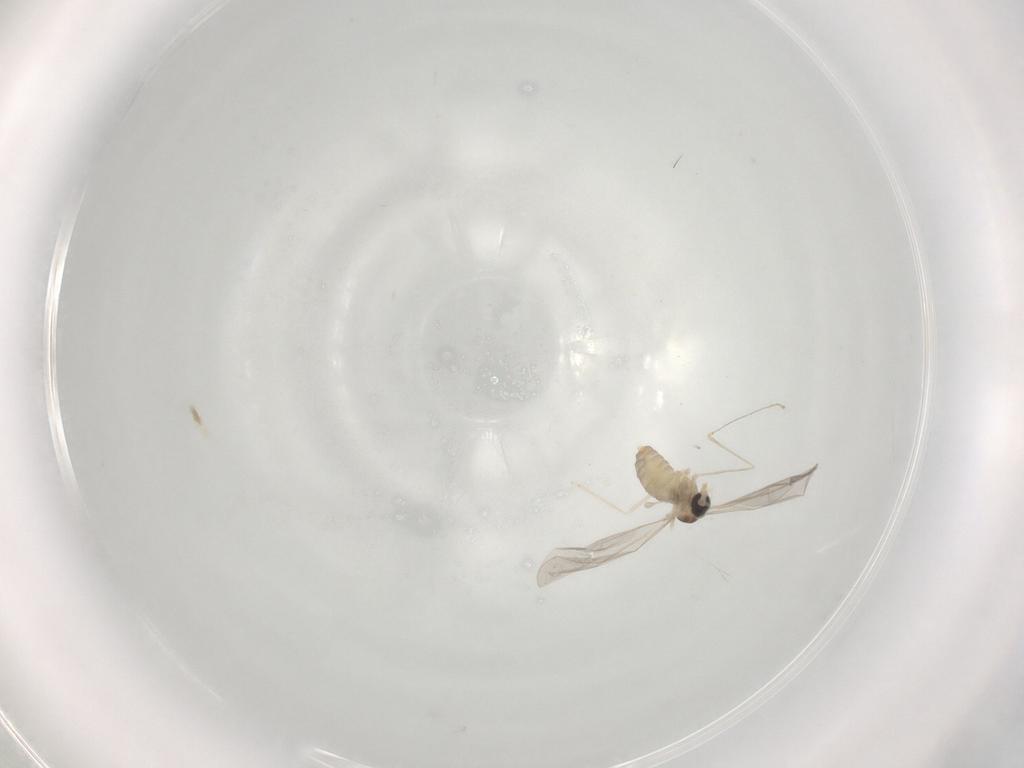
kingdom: Animalia
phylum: Arthropoda
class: Insecta
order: Diptera
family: Cecidomyiidae
